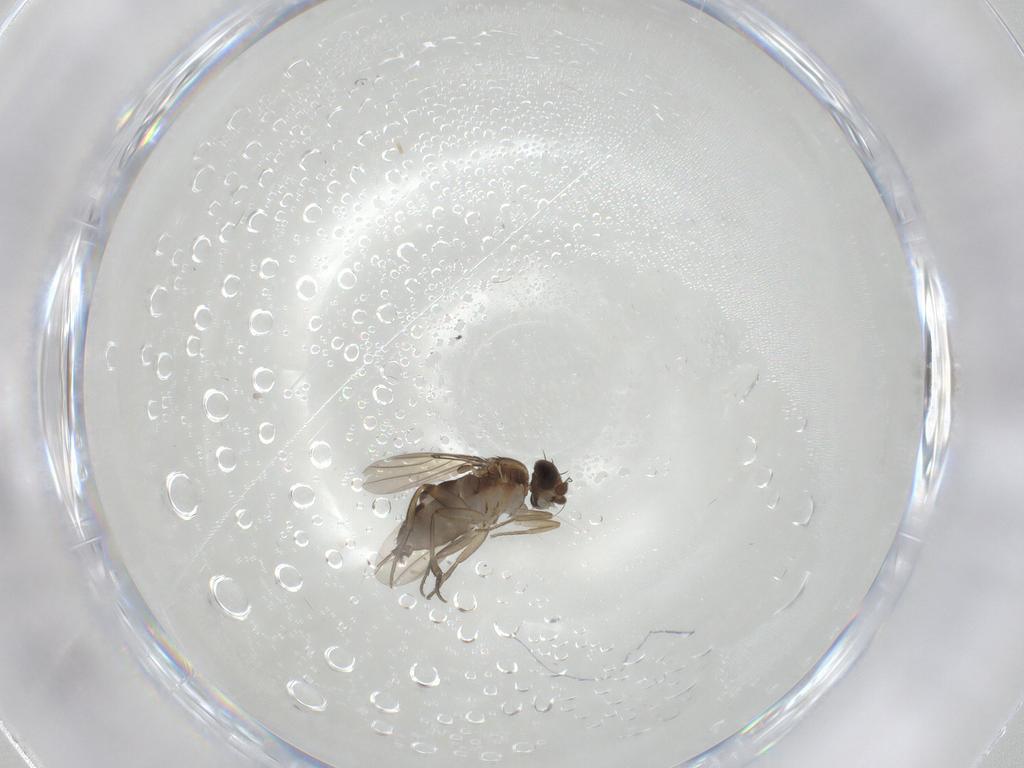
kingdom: Animalia
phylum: Arthropoda
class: Insecta
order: Diptera
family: Phoridae
